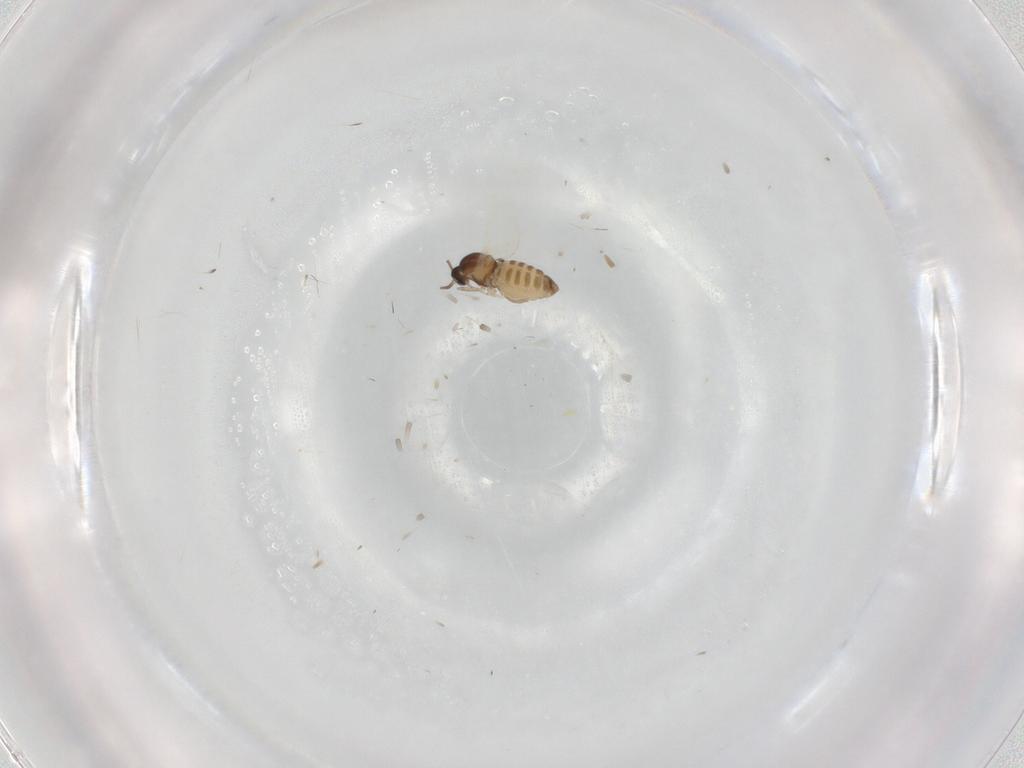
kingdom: Animalia
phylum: Arthropoda
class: Insecta
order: Diptera
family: Cecidomyiidae
